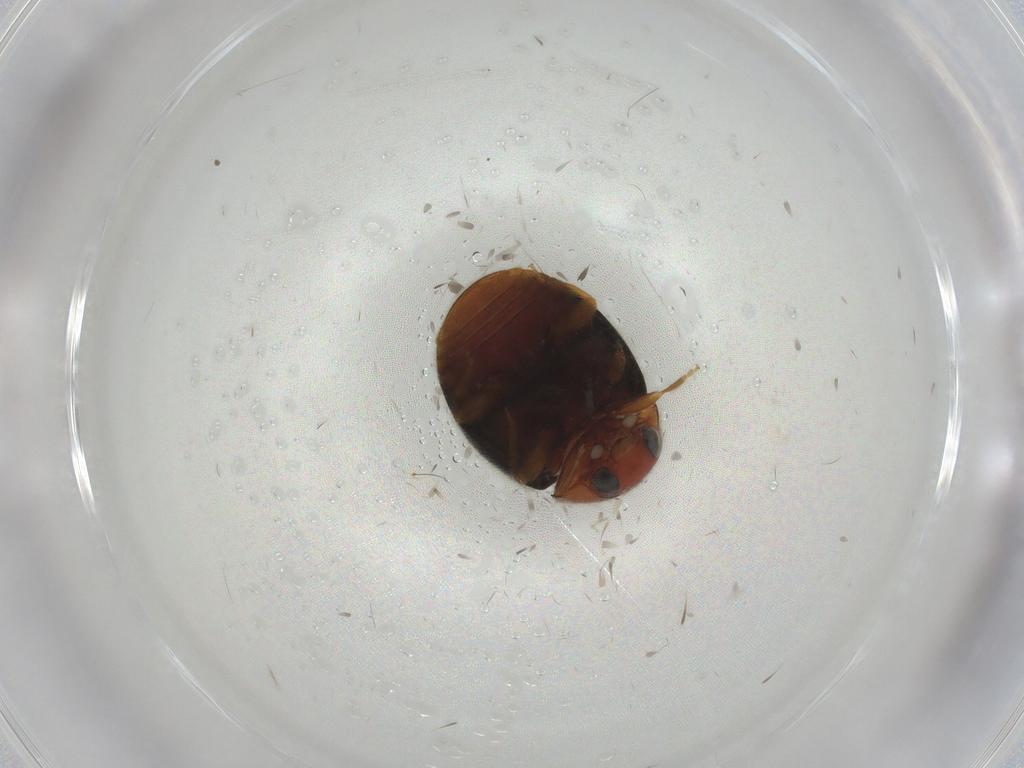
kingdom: Animalia
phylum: Arthropoda
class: Insecta
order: Coleoptera
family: Coccinellidae
